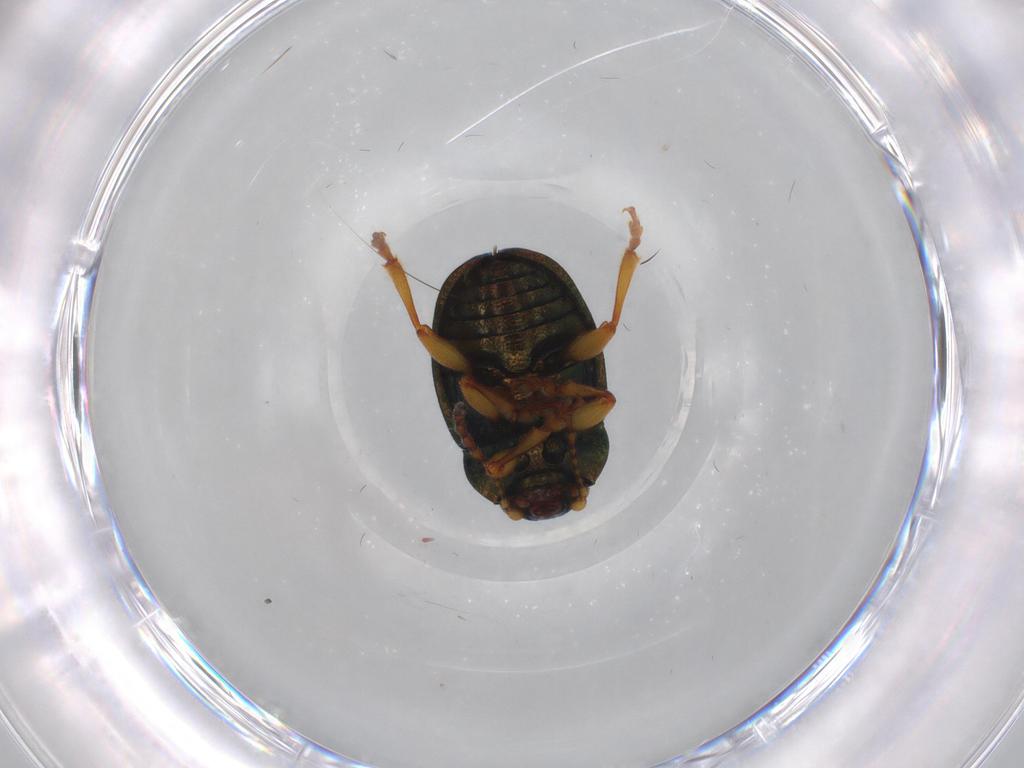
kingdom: Animalia
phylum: Arthropoda
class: Insecta
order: Coleoptera
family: Chrysomelidae
